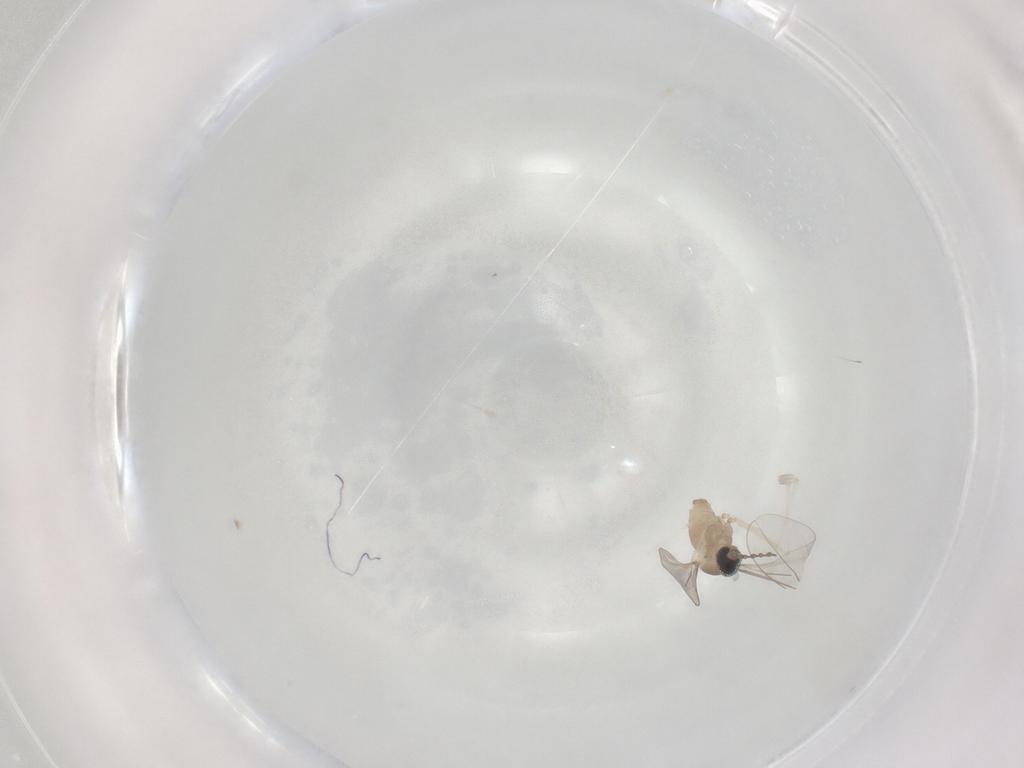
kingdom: Animalia
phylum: Arthropoda
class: Insecta
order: Diptera
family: Cecidomyiidae
